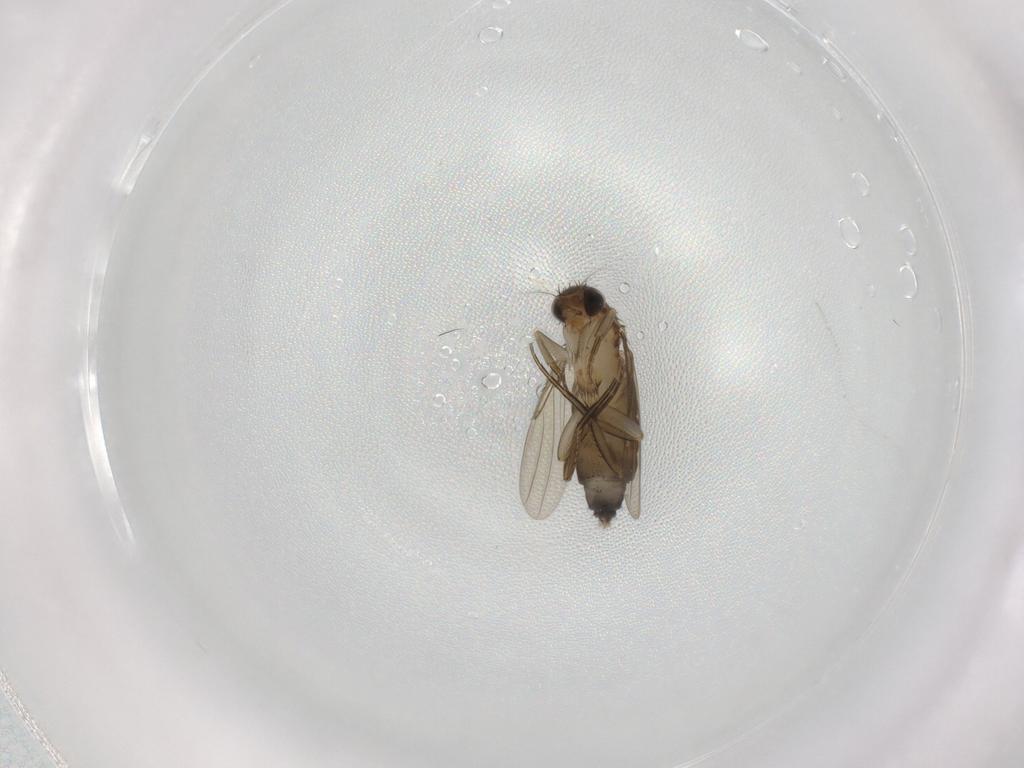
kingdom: Animalia
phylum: Arthropoda
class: Insecta
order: Diptera
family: Phoridae
